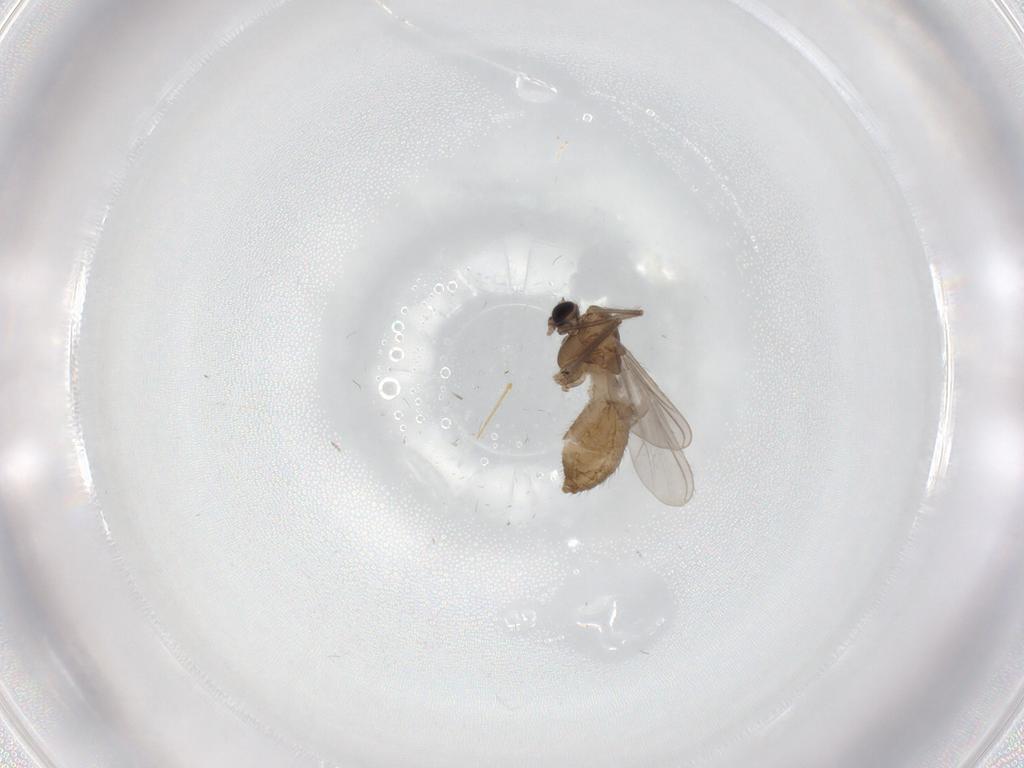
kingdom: Animalia
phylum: Arthropoda
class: Insecta
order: Diptera
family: Chironomidae
